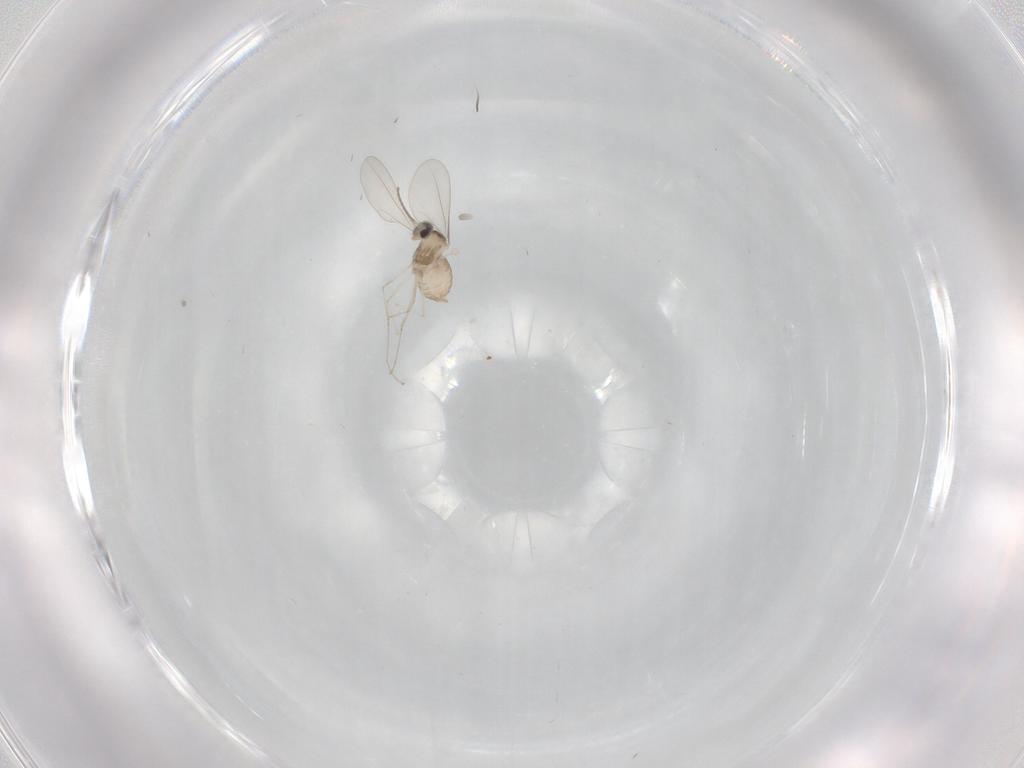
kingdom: Animalia
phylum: Arthropoda
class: Insecta
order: Diptera
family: Cecidomyiidae
